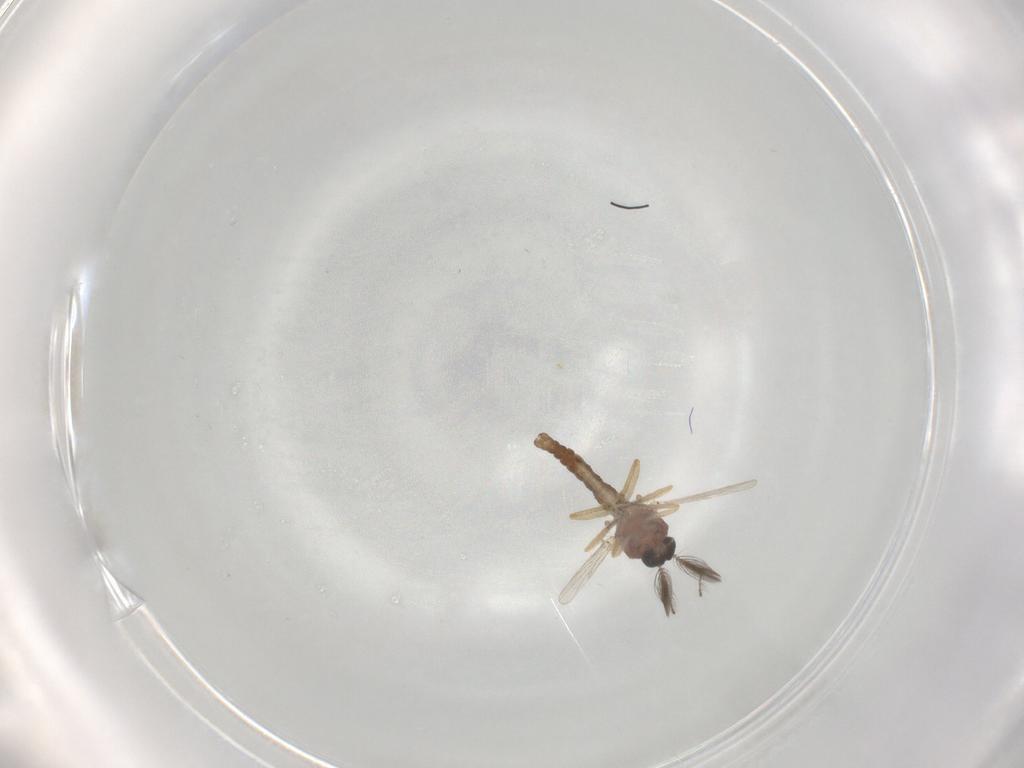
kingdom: Animalia
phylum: Arthropoda
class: Insecta
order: Diptera
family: Ceratopogonidae
